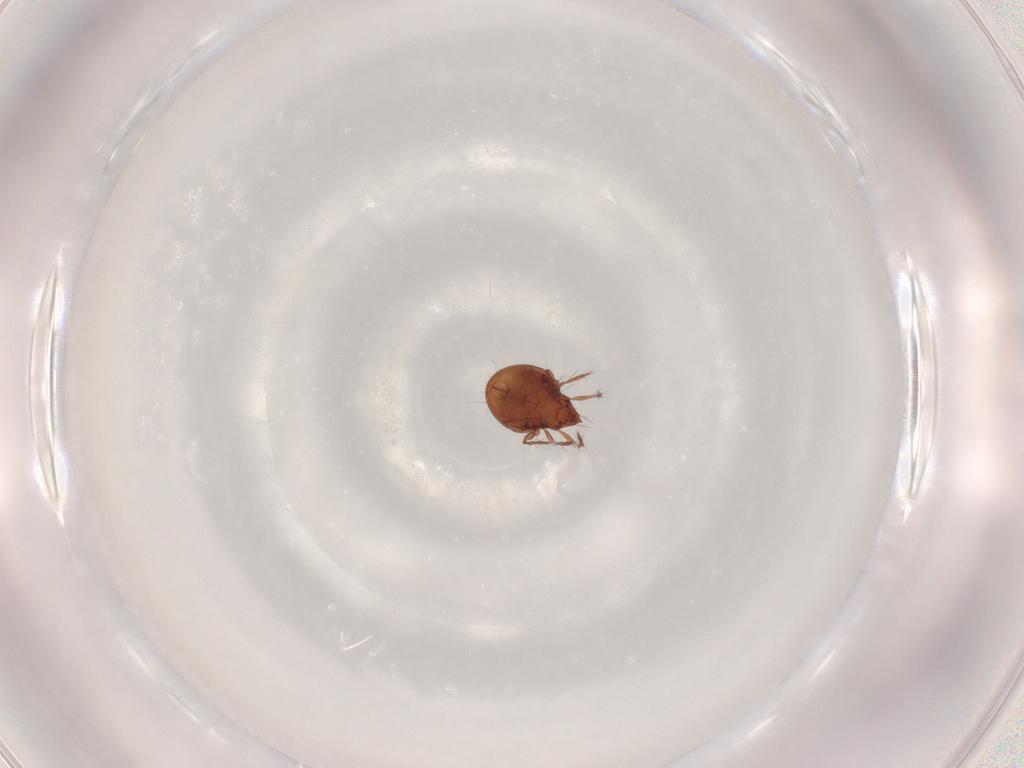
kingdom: Animalia
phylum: Arthropoda
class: Arachnida
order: Sarcoptiformes
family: Ceratoppiidae
